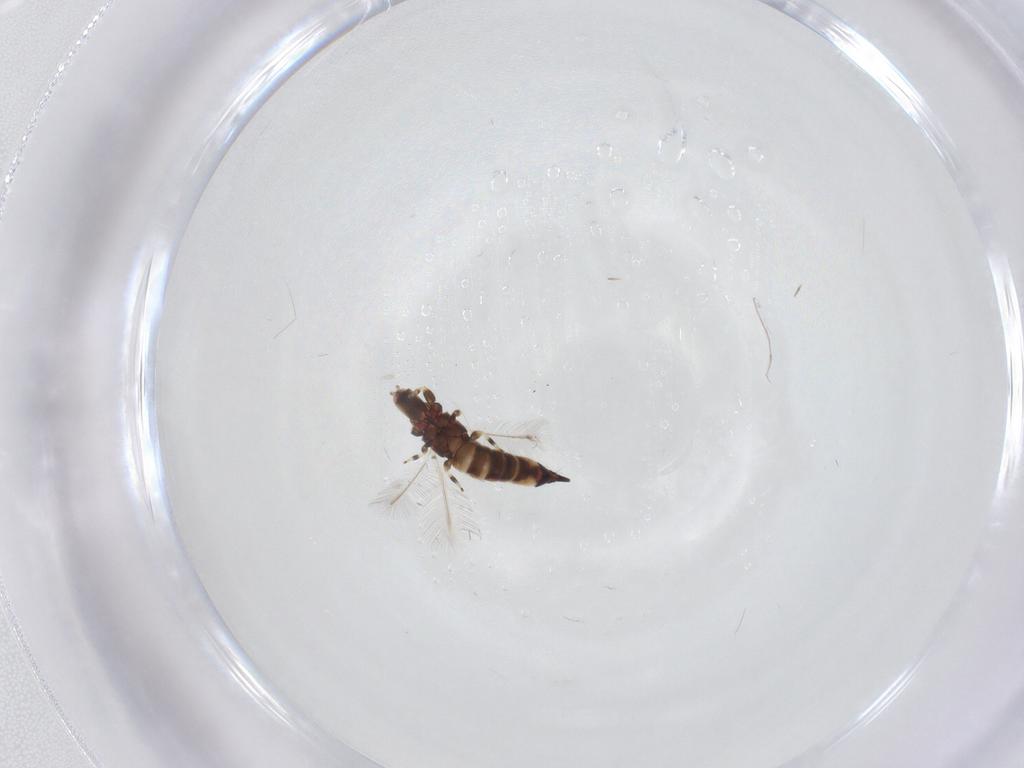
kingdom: Animalia
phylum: Arthropoda
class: Insecta
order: Thysanoptera
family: Phlaeothripidae
